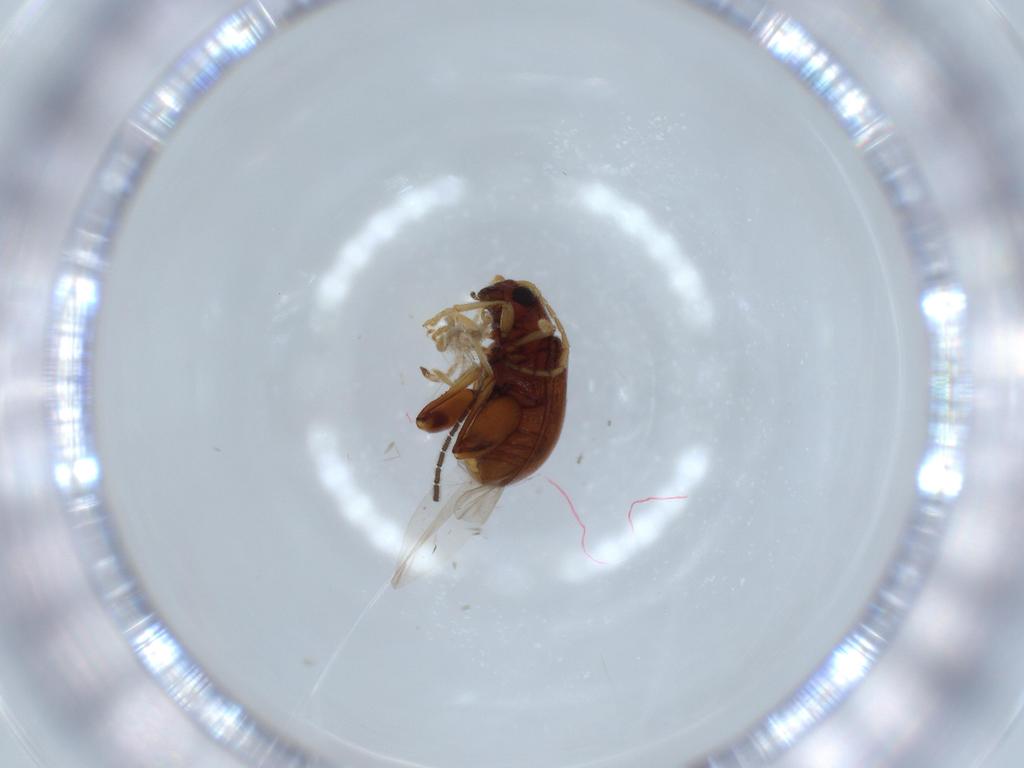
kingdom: Animalia
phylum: Arthropoda
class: Insecta
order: Coleoptera
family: Chrysomelidae
